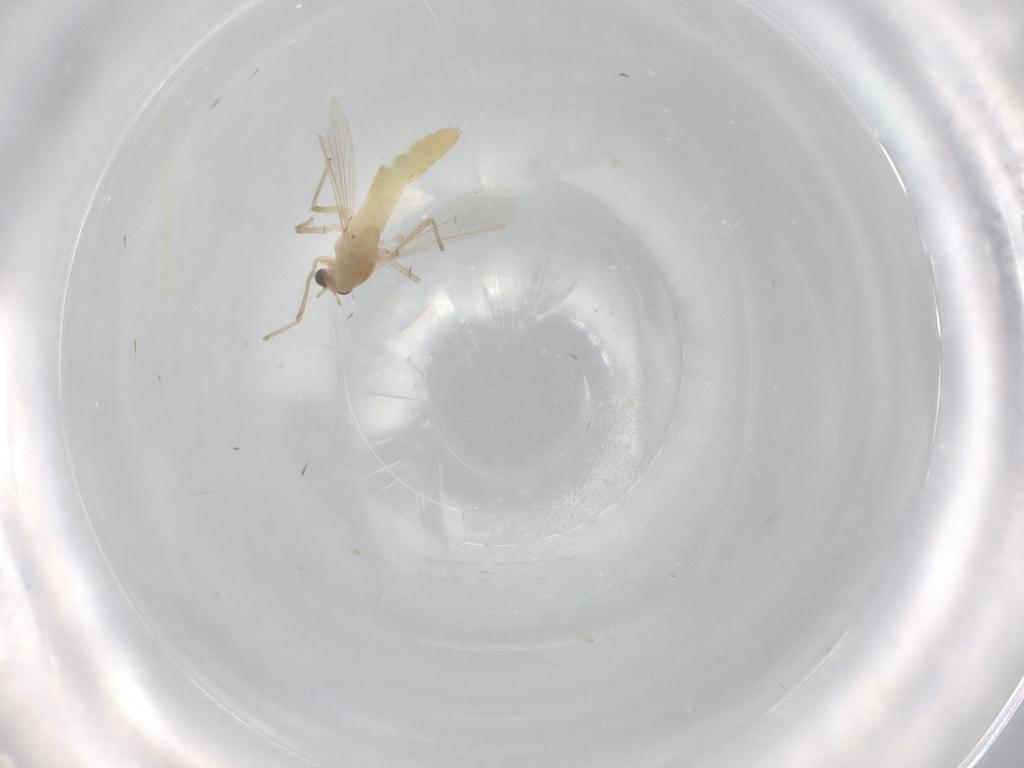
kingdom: Animalia
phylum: Arthropoda
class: Insecta
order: Diptera
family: Chironomidae
